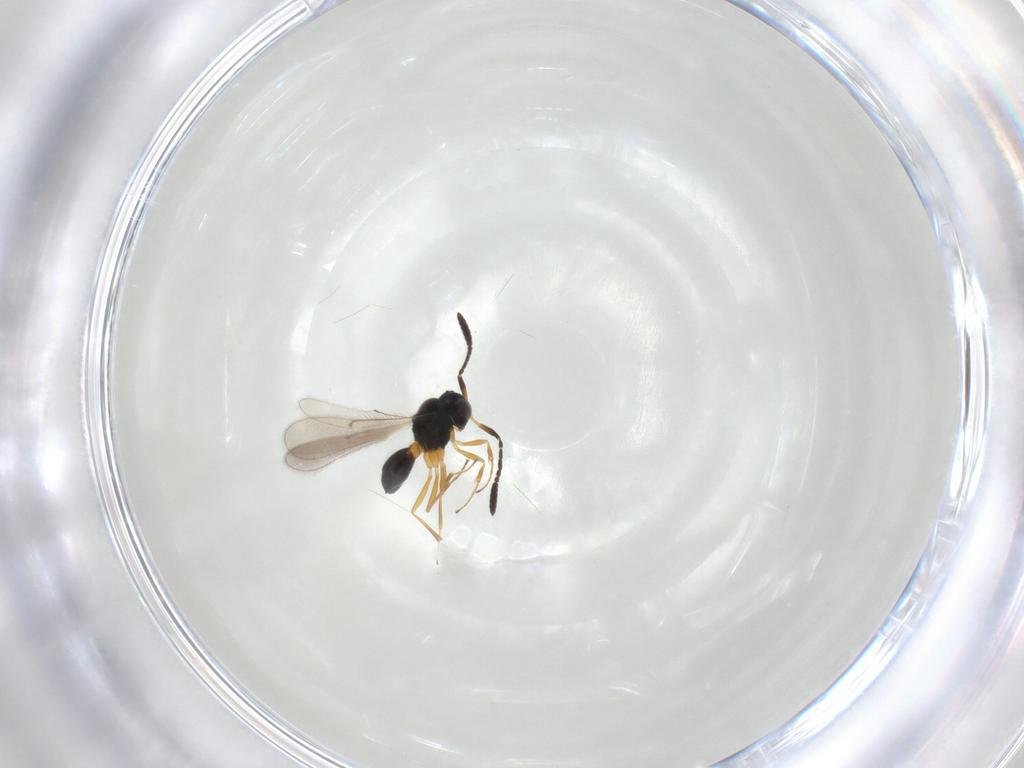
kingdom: Animalia
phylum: Arthropoda
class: Insecta
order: Hymenoptera
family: Scelionidae
